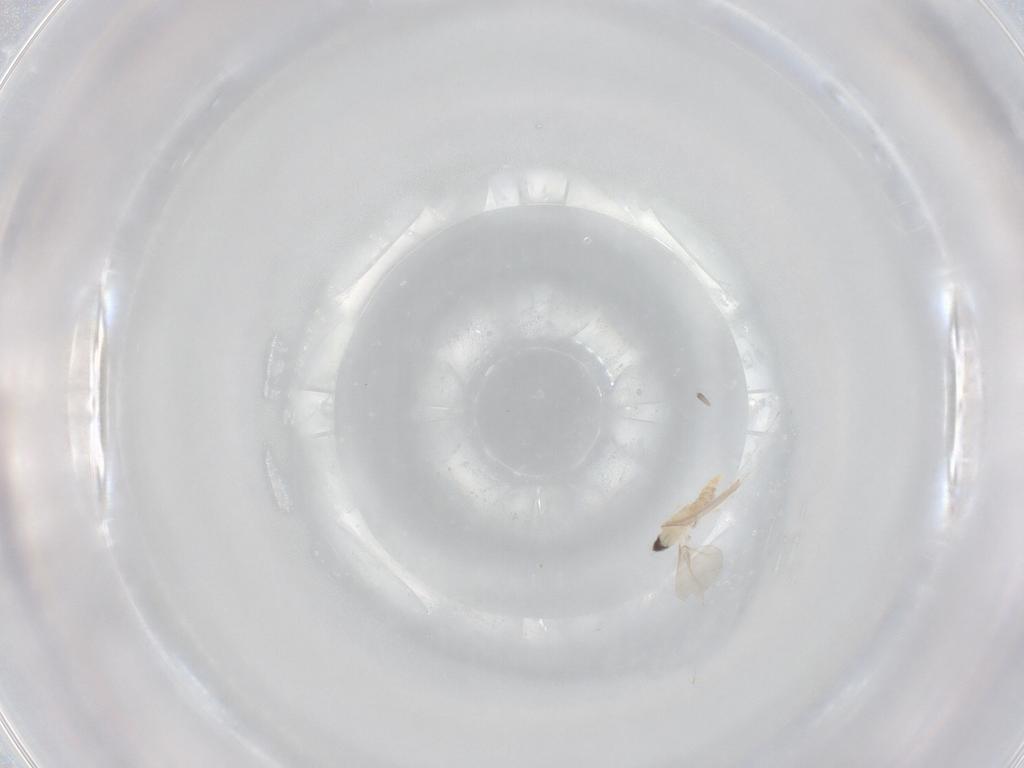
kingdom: Animalia
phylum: Arthropoda
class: Insecta
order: Diptera
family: Cecidomyiidae
